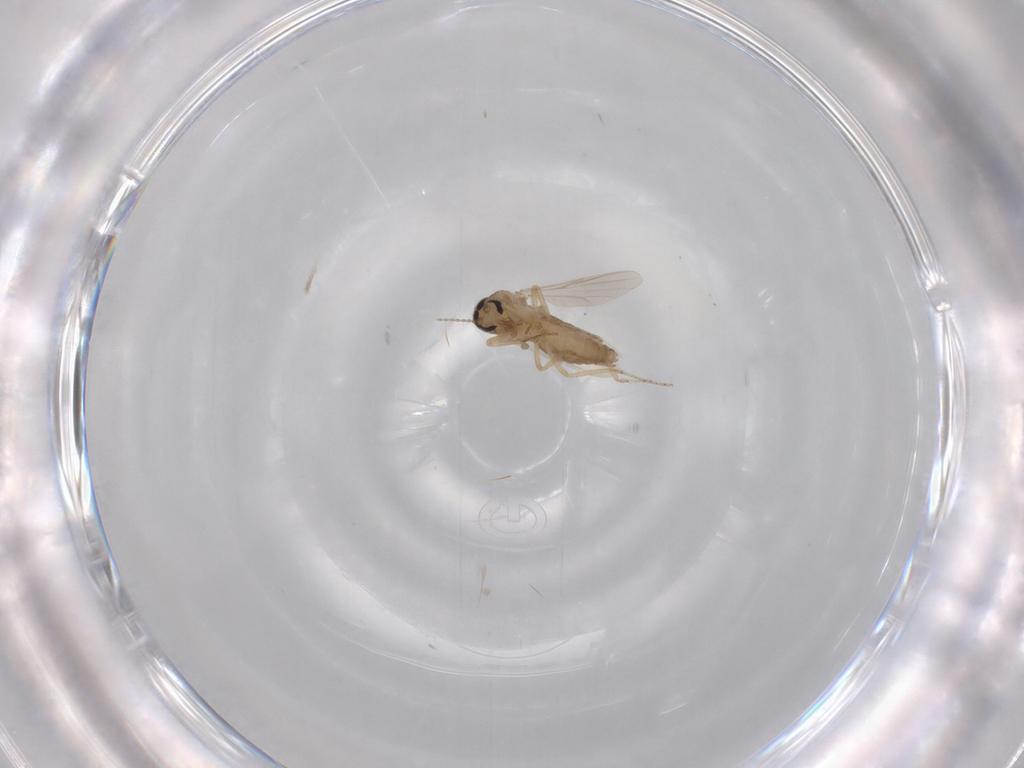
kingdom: Animalia
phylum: Arthropoda
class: Insecta
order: Diptera
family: Ceratopogonidae
